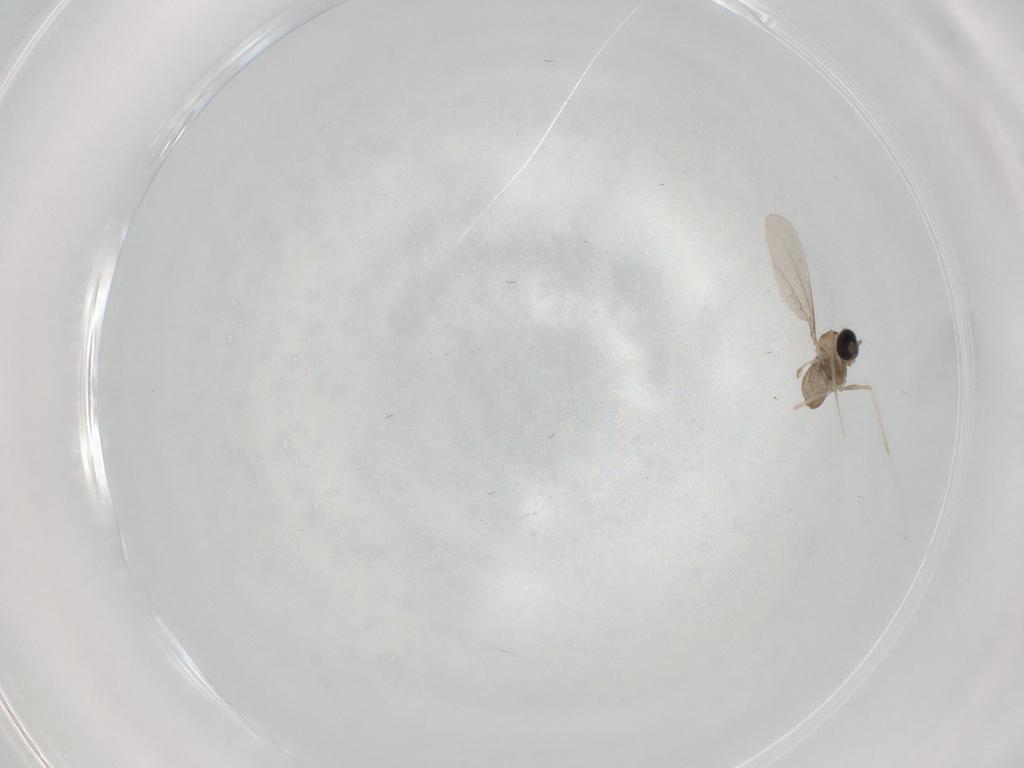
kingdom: Animalia
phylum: Arthropoda
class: Insecta
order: Diptera
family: Cecidomyiidae
